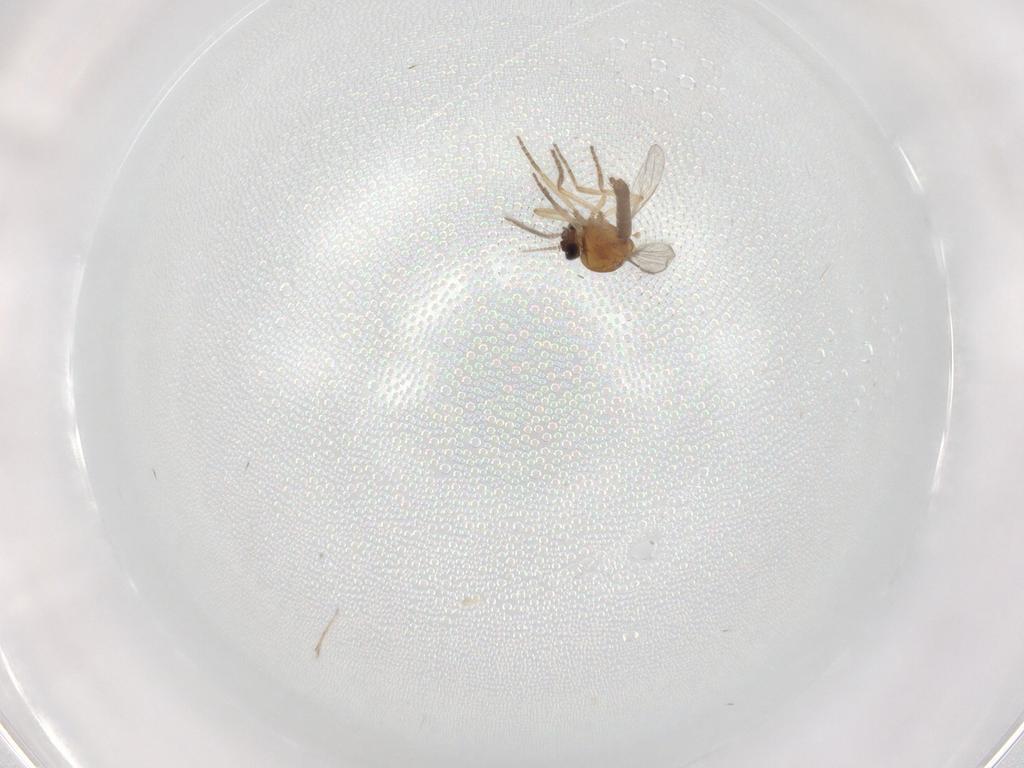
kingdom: Animalia
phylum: Arthropoda
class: Insecta
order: Diptera
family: Chironomidae
